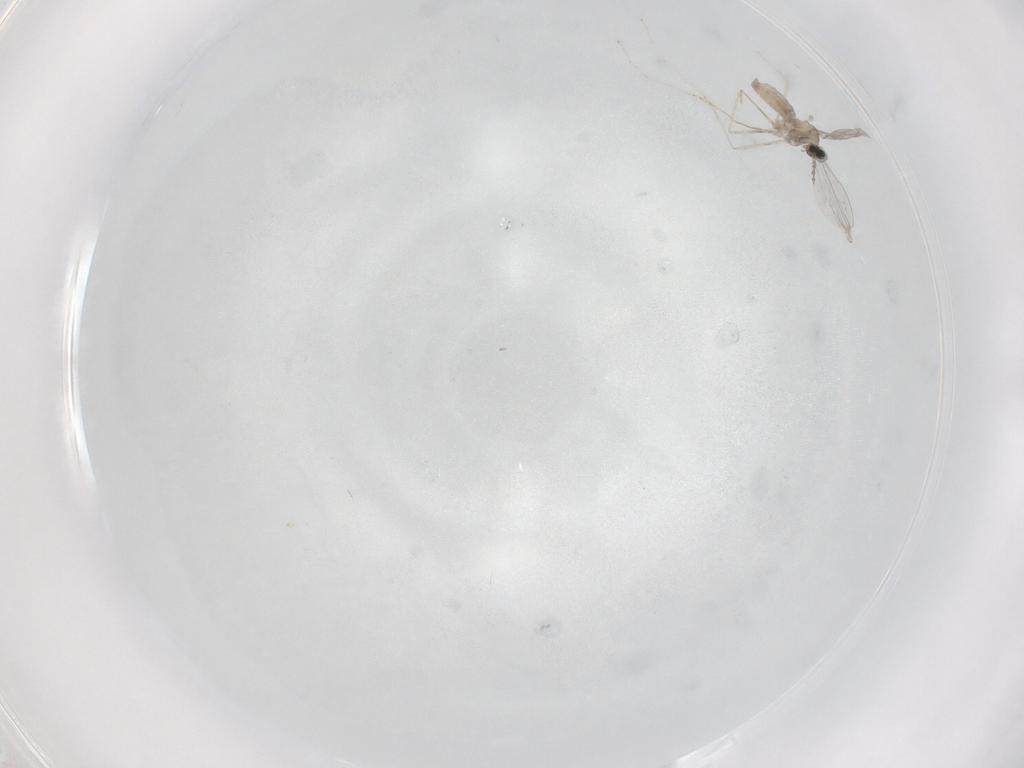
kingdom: Animalia
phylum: Arthropoda
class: Insecta
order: Diptera
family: Cecidomyiidae
